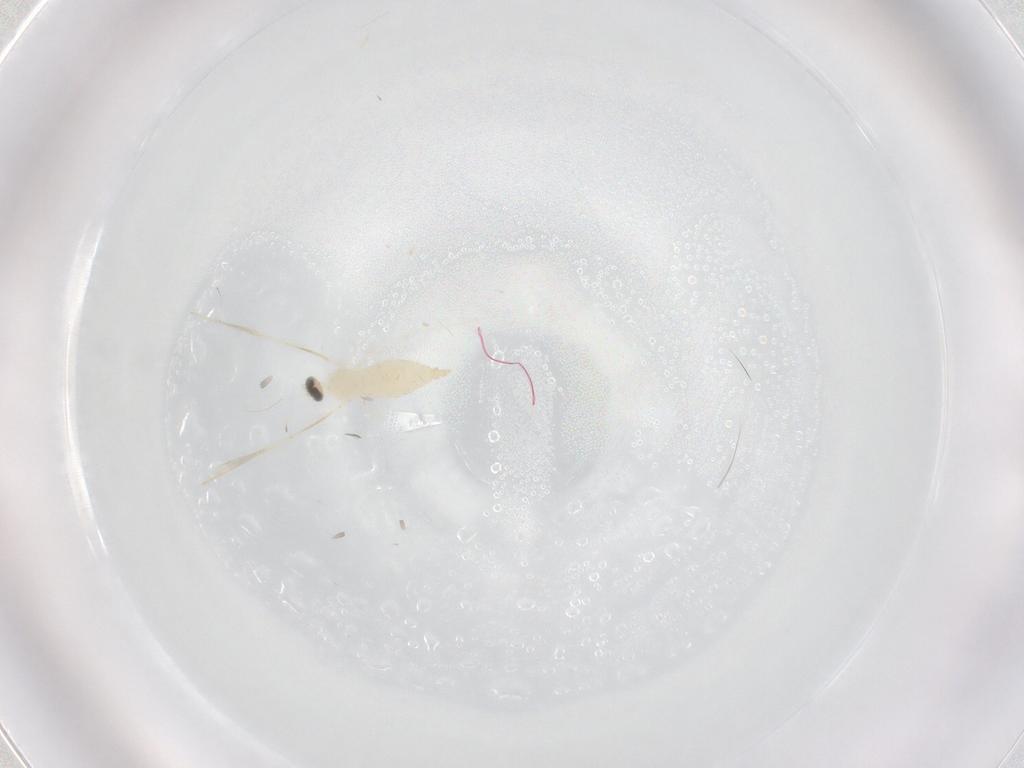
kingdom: Animalia
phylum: Arthropoda
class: Insecta
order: Diptera
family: Cecidomyiidae
